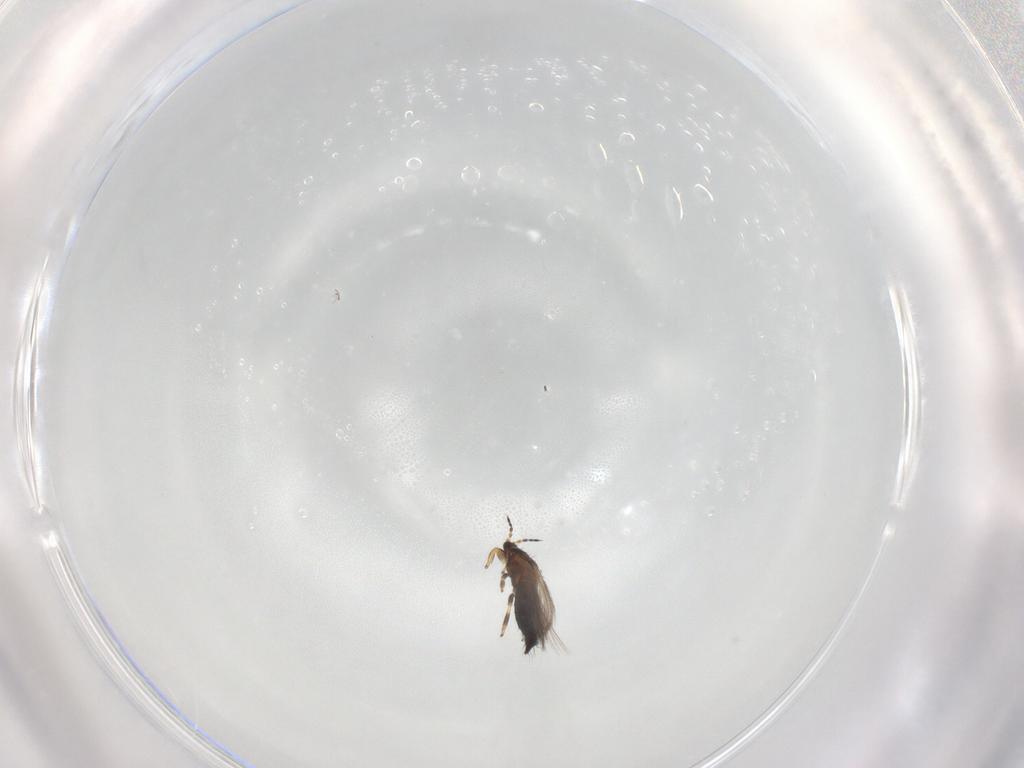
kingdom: Animalia
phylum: Arthropoda
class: Insecta
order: Thysanoptera
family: Thripidae
